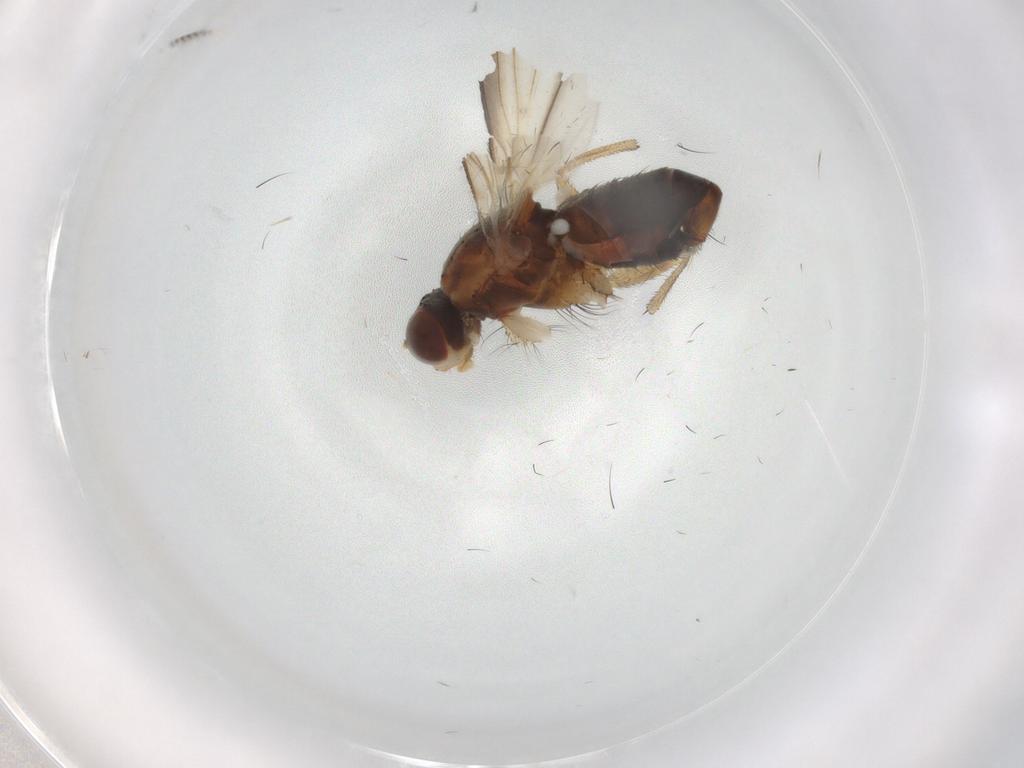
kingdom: Animalia
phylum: Arthropoda
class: Insecta
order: Diptera
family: Heleomyzidae
